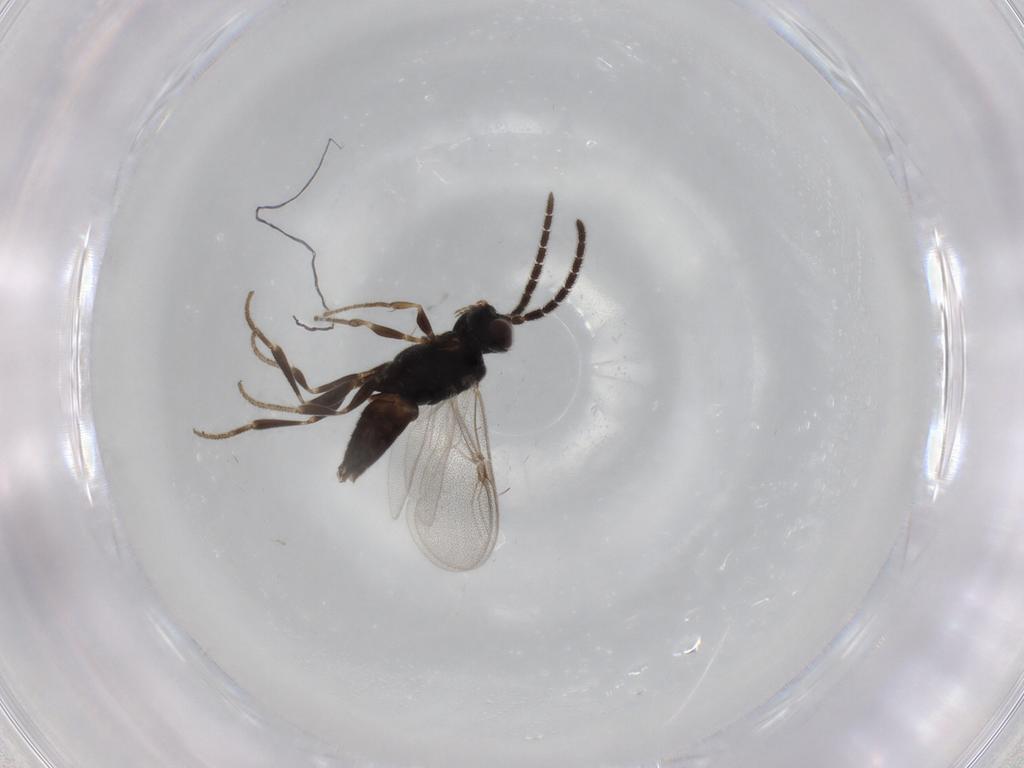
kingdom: Animalia
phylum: Arthropoda
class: Insecta
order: Hymenoptera
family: Dryinidae
